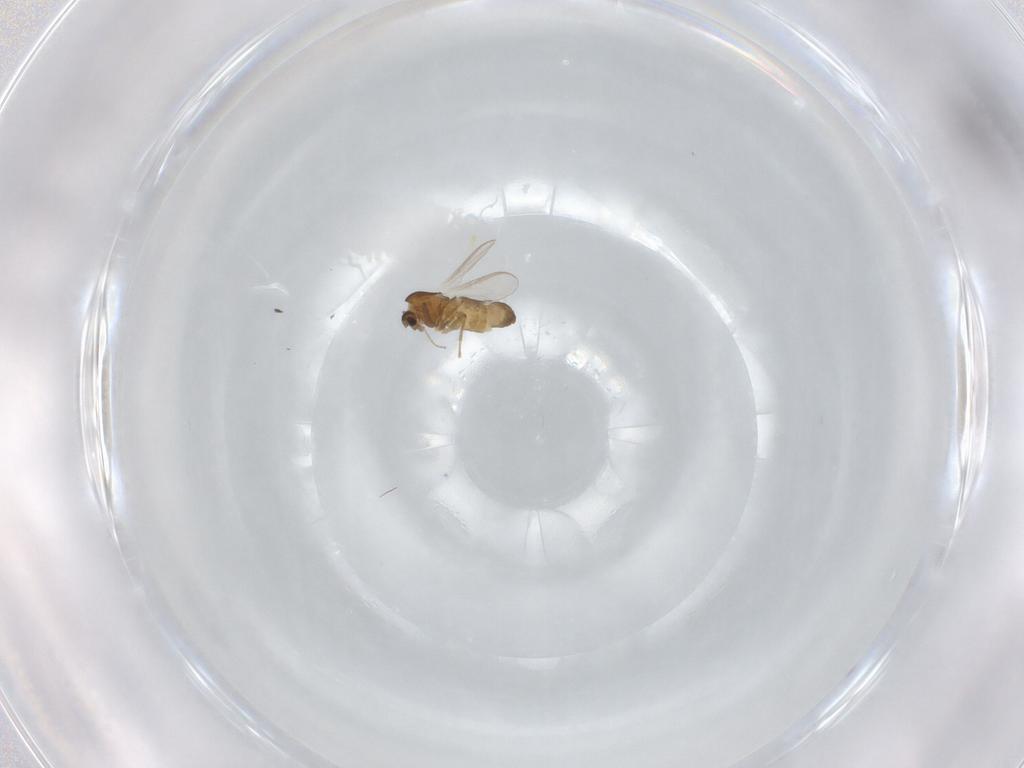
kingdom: Animalia
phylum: Arthropoda
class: Insecta
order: Diptera
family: Chironomidae
